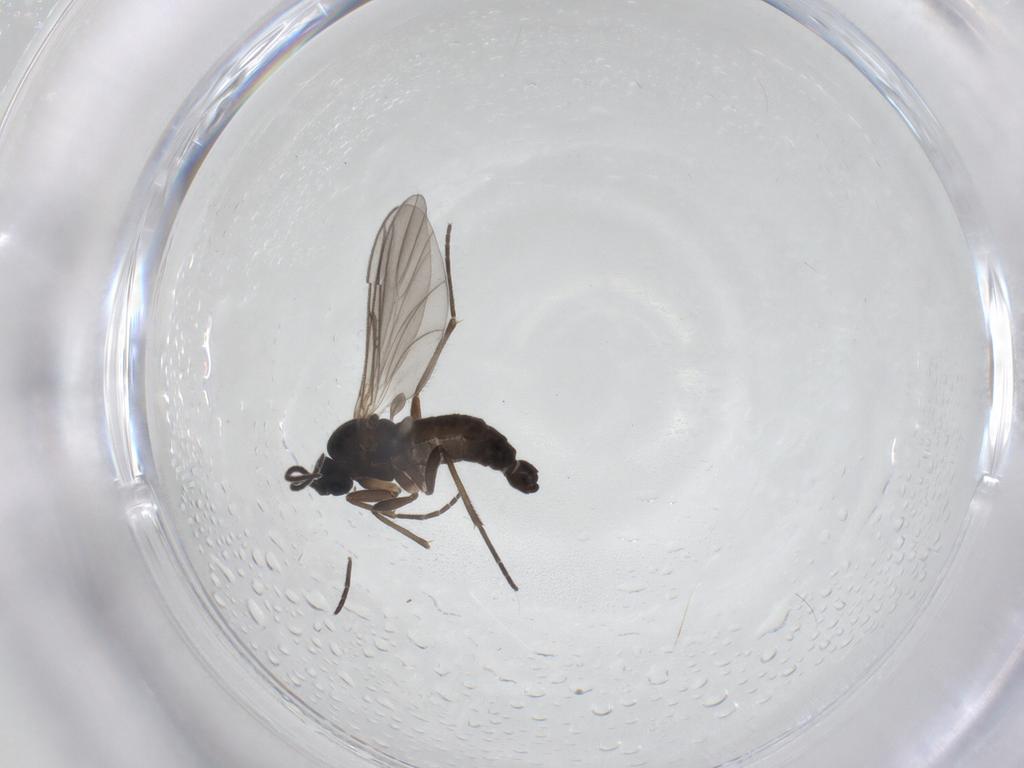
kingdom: Animalia
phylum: Arthropoda
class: Insecta
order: Diptera
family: Sciaridae
